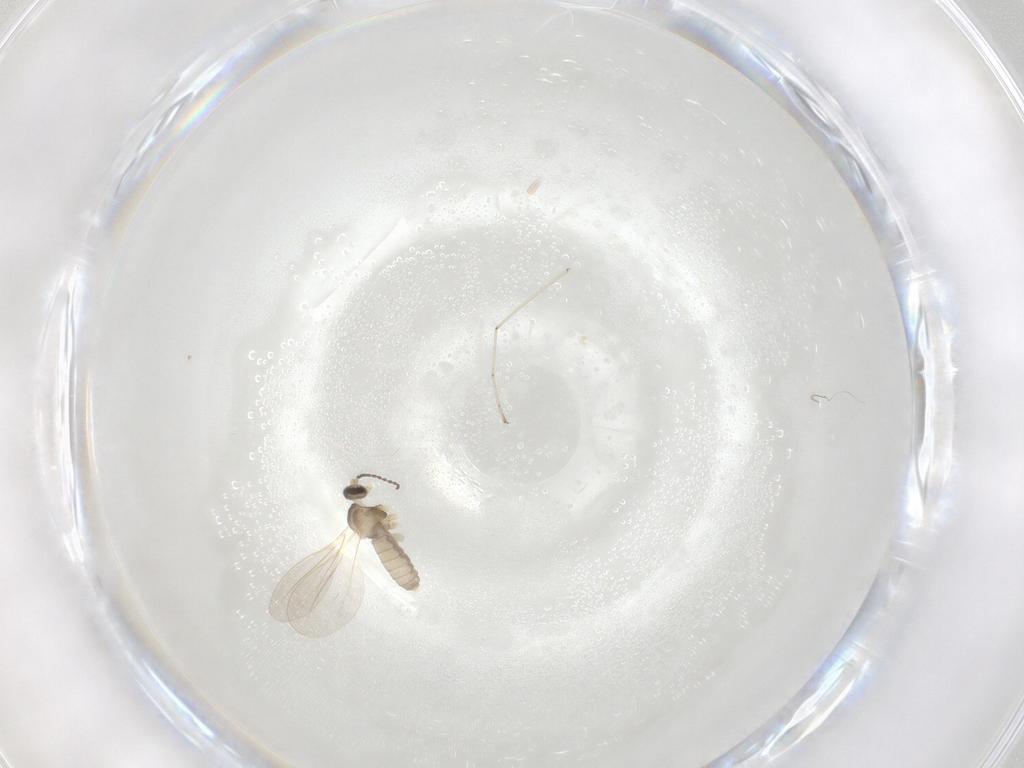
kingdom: Animalia
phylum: Arthropoda
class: Insecta
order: Diptera
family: Cecidomyiidae
